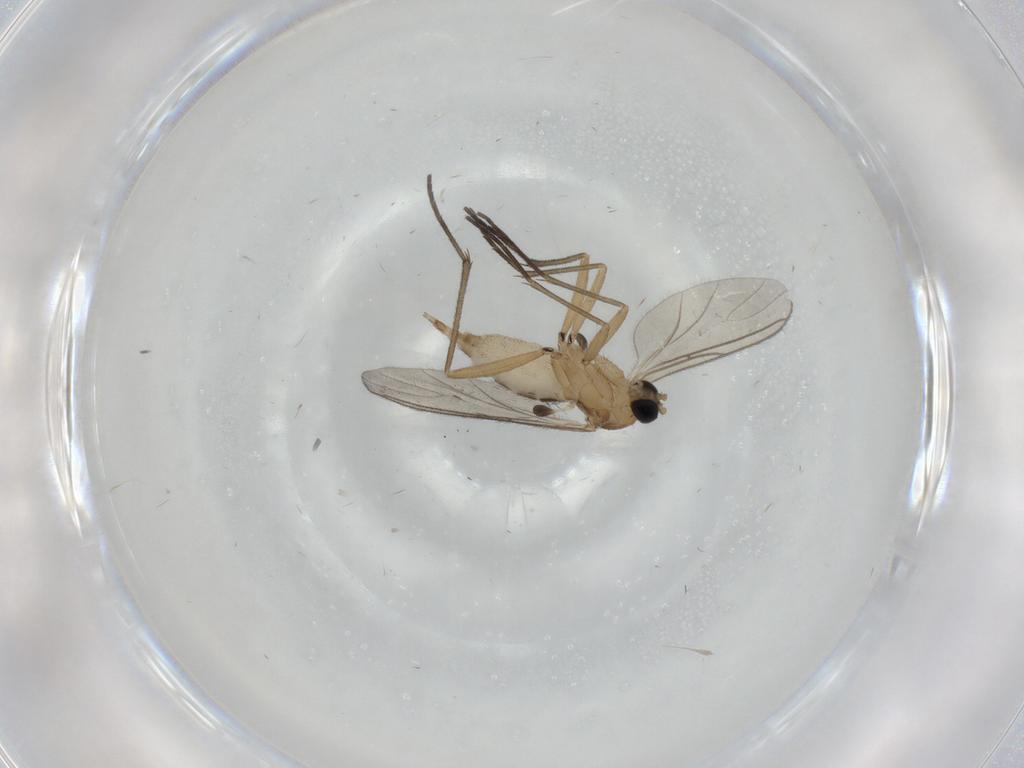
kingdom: Animalia
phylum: Arthropoda
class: Insecta
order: Diptera
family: Sciaridae
